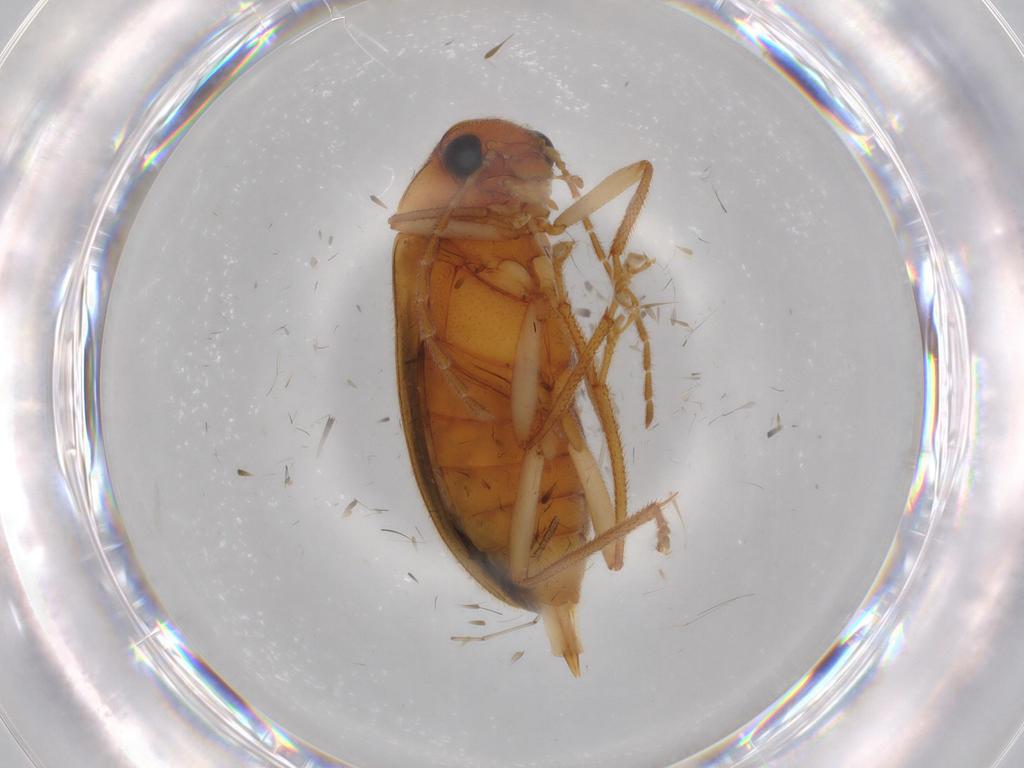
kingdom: Animalia
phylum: Arthropoda
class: Insecta
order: Coleoptera
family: Ptilodactylidae
